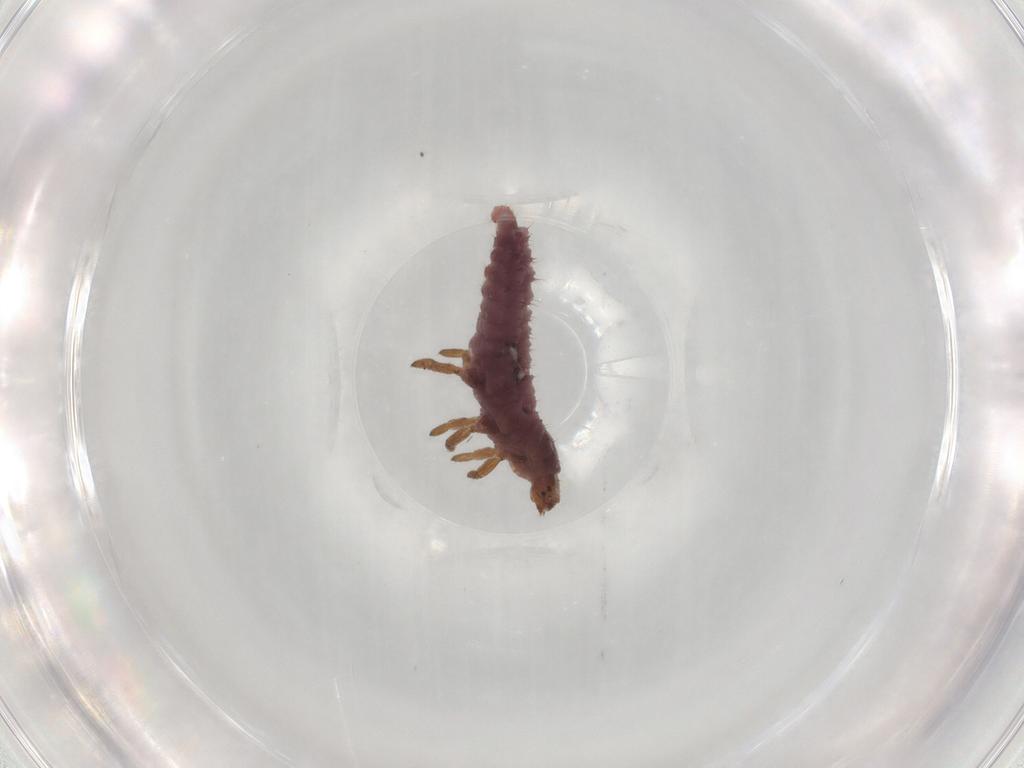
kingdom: Animalia
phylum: Arthropoda
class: Insecta
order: Coleoptera
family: Coccinellidae
